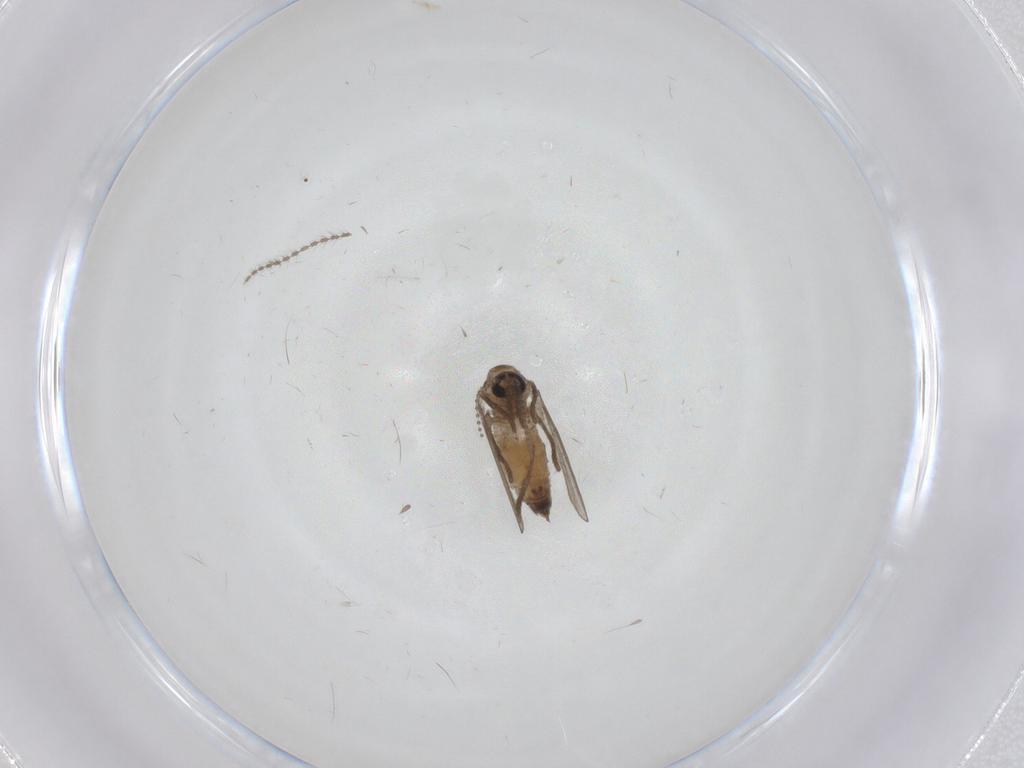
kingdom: Animalia
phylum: Arthropoda
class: Insecta
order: Diptera
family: Psychodidae
